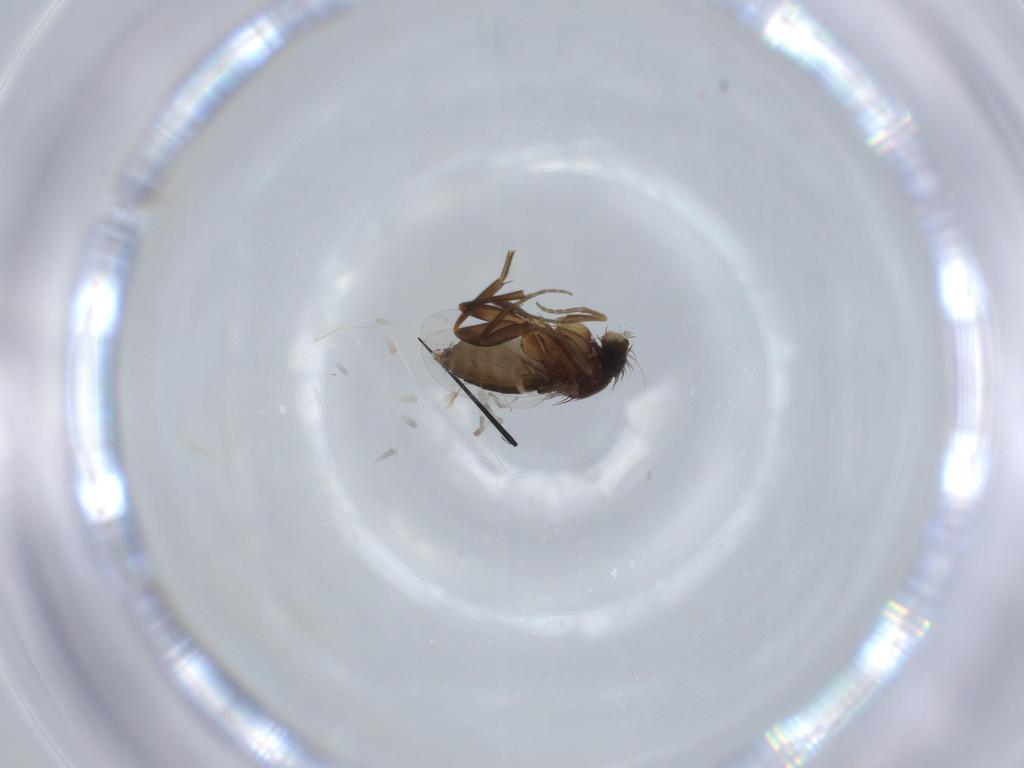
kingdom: Animalia
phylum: Arthropoda
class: Insecta
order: Diptera
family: Phoridae
